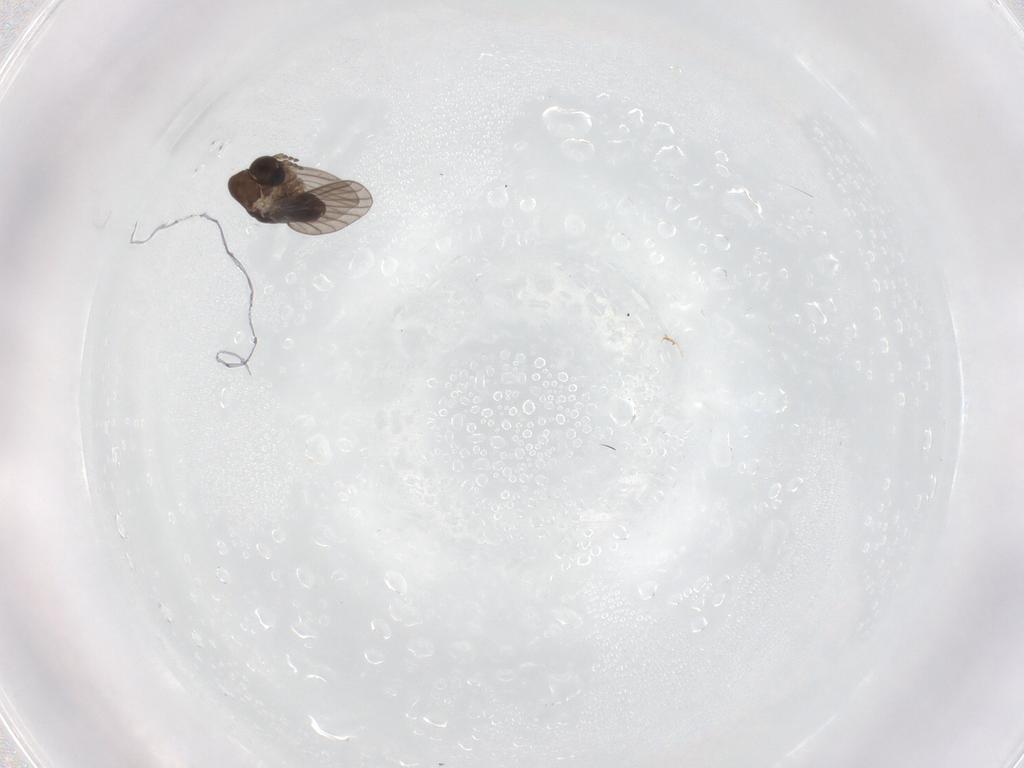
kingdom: Animalia
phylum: Arthropoda
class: Insecta
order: Diptera
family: Cecidomyiidae
